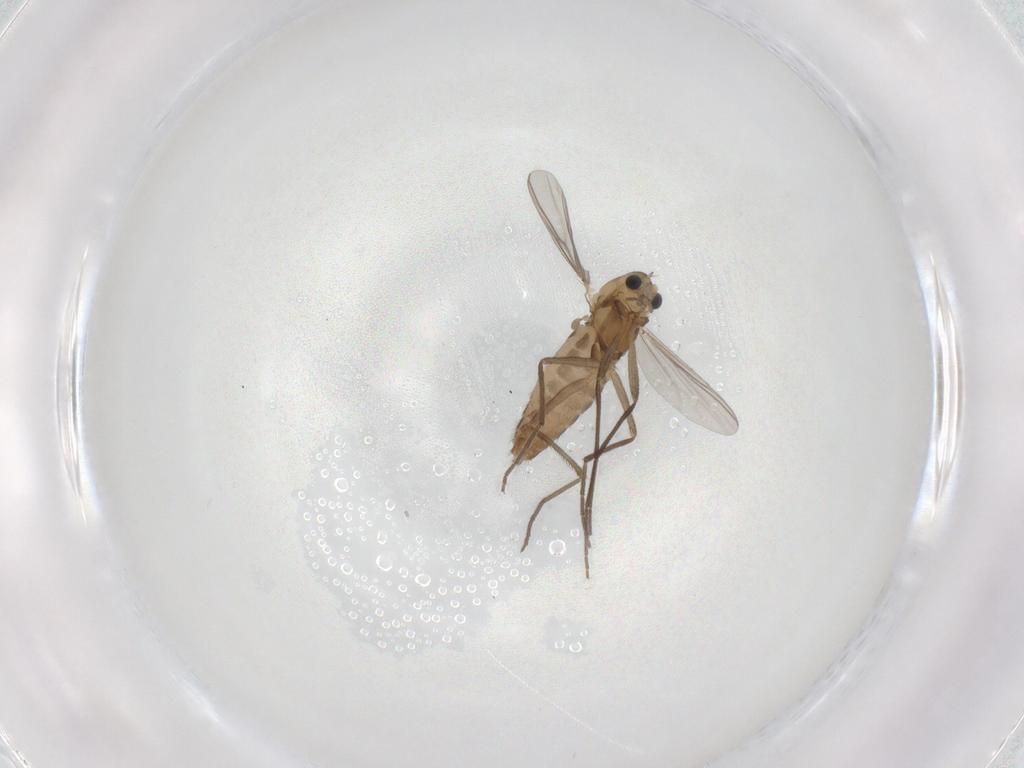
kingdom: Animalia
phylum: Arthropoda
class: Insecta
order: Diptera
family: Chironomidae
